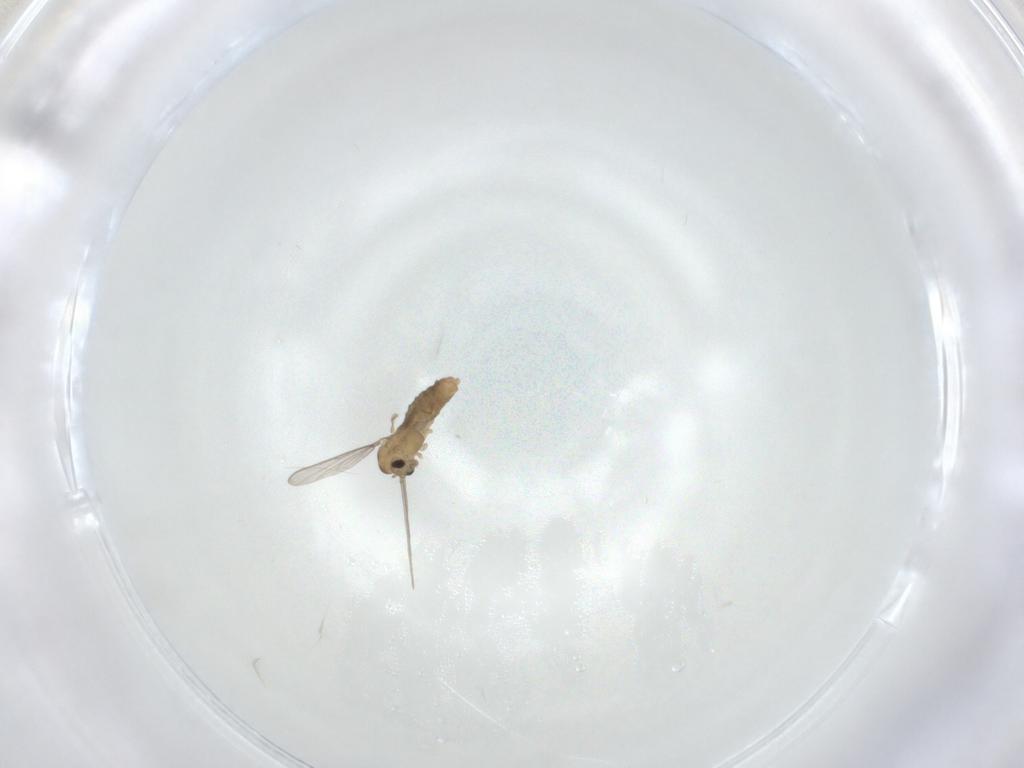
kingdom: Animalia
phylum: Arthropoda
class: Insecta
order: Diptera
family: Chironomidae
